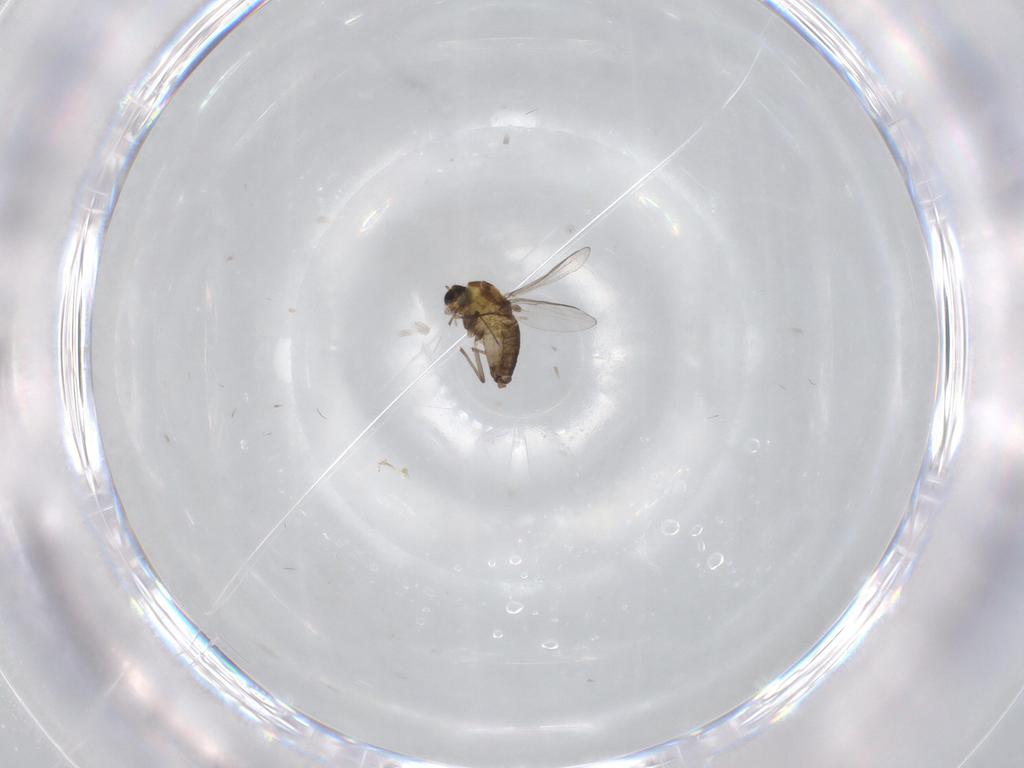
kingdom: Animalia
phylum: Arthropoda
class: Insecta
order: Diptera
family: Chironomidae
